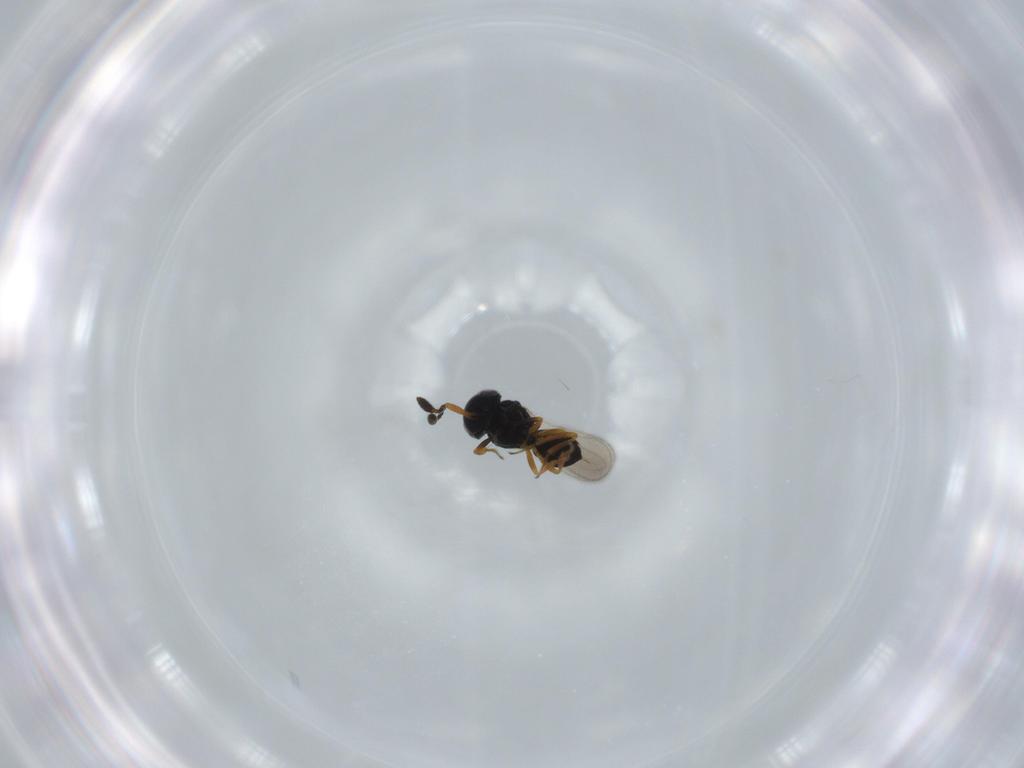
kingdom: Animalia
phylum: Arthropoda
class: Insecta
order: Hymenoptera
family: Scelionidae
